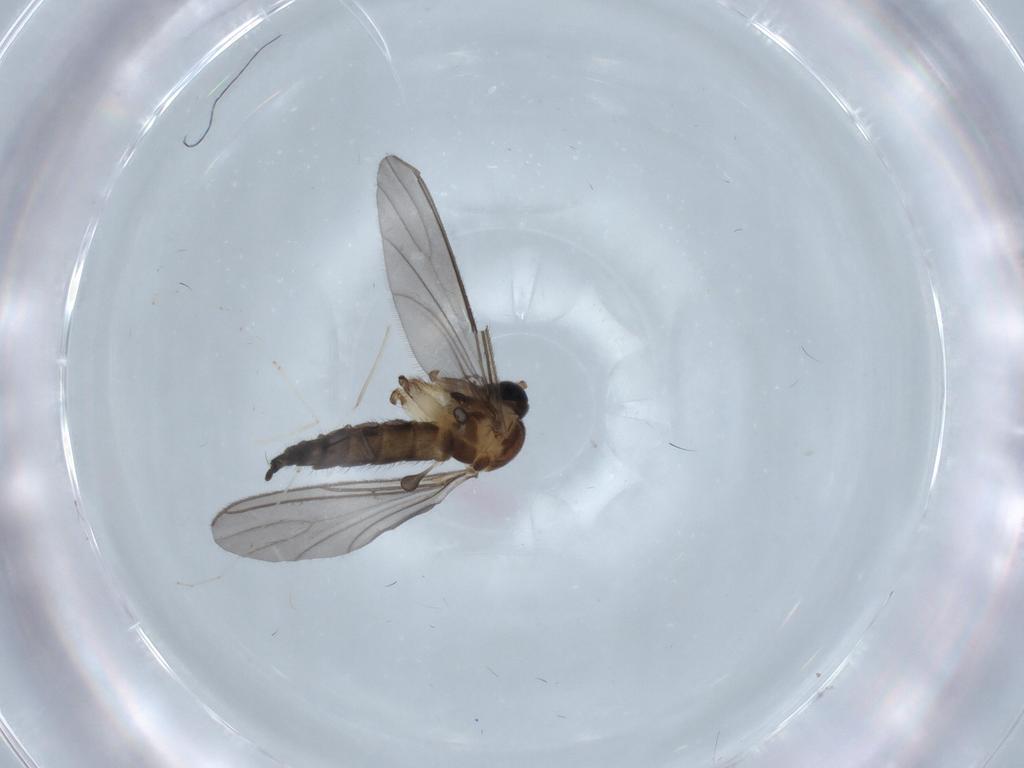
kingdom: Animalia
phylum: Arthropoda
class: Insecta
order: Diptera
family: Sciaridae
